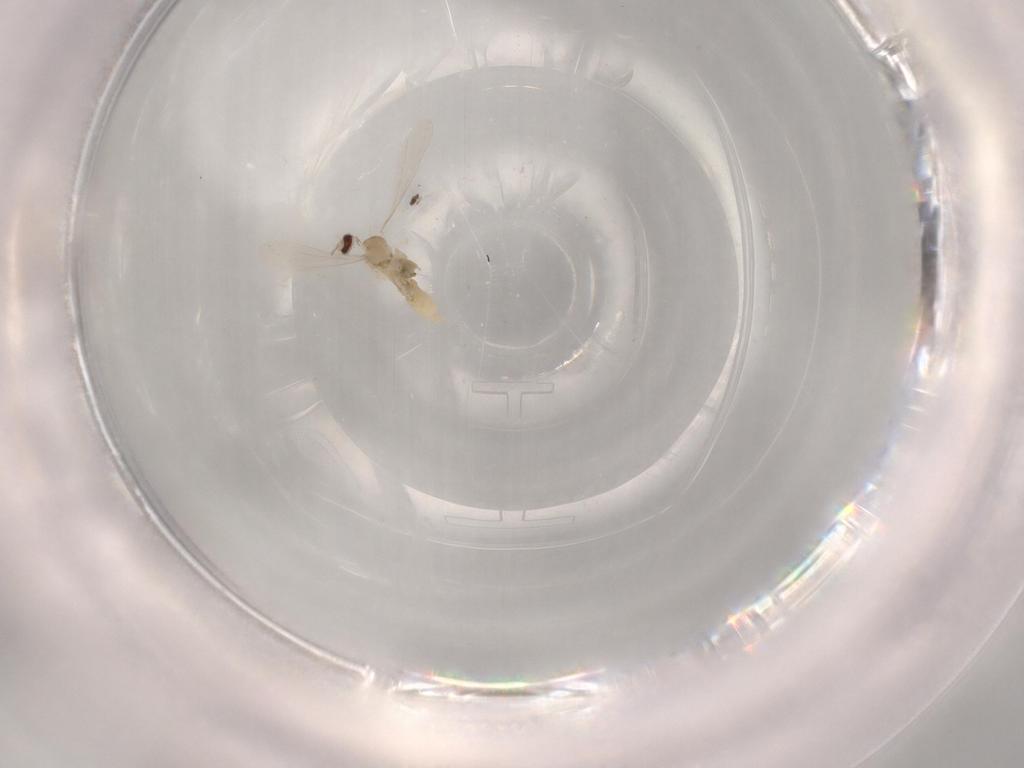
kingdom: Animalia
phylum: Arthropoda
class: Insecta
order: Diptera
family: Cecidomyiidae
